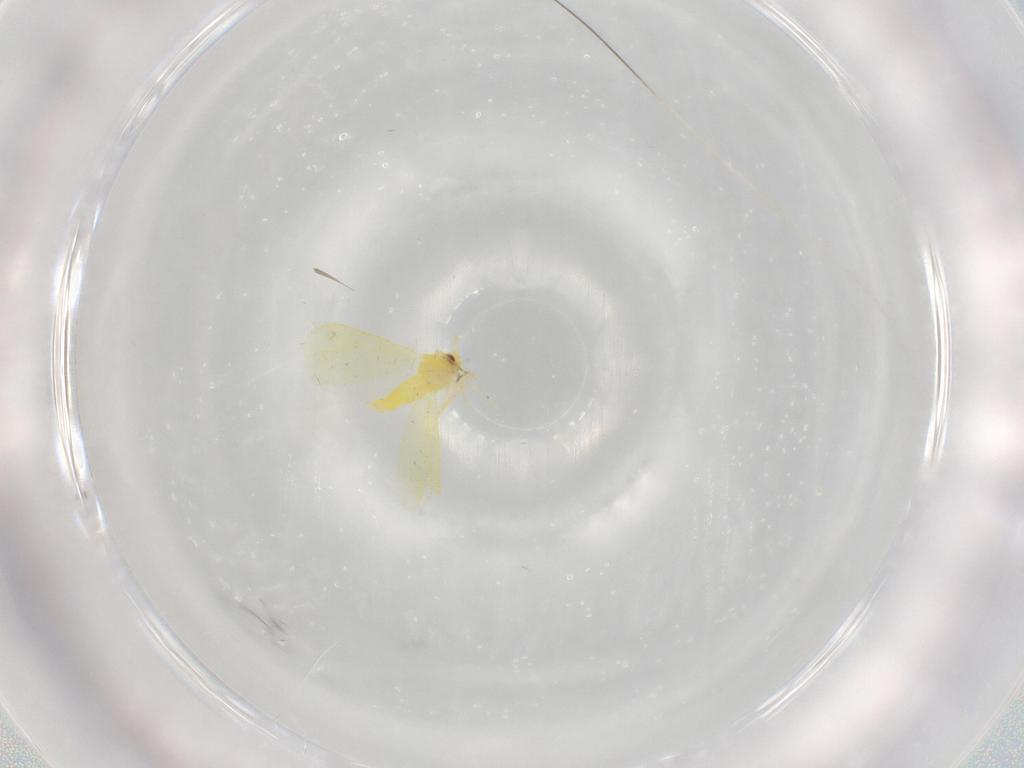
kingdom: Animalia
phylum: Arthropoda
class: Insecta
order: Hemiptera
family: Aleyrodidae
